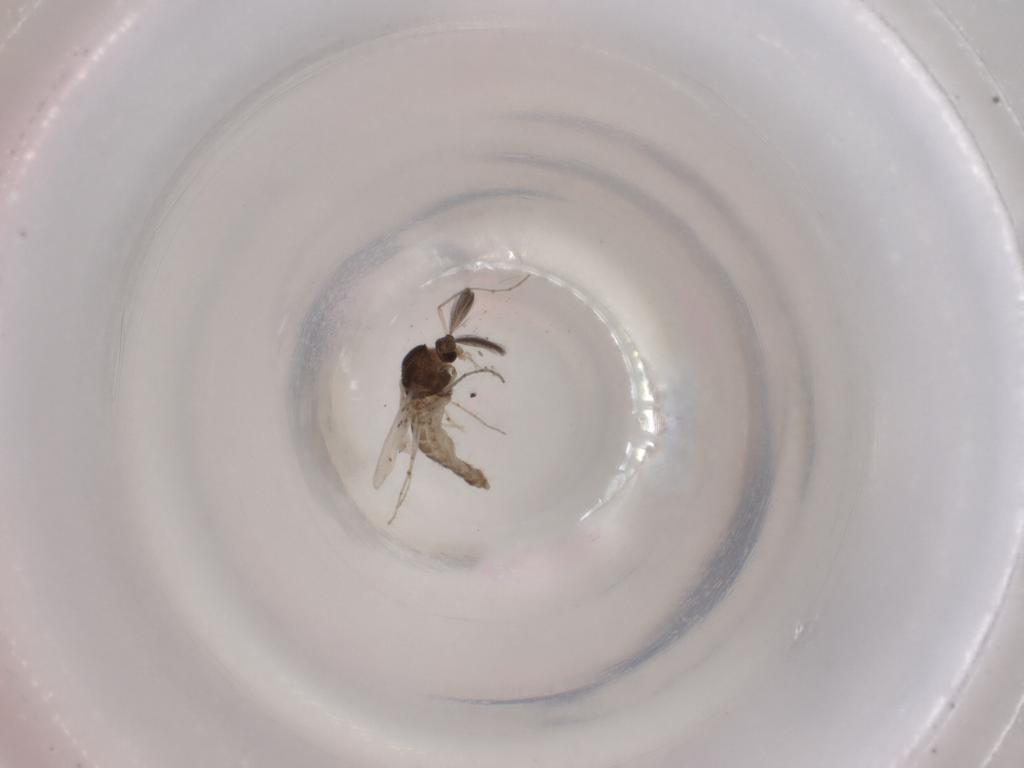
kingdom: Animalia
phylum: Arthropoda
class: Insecta
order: Diptera
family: Chironomidae
